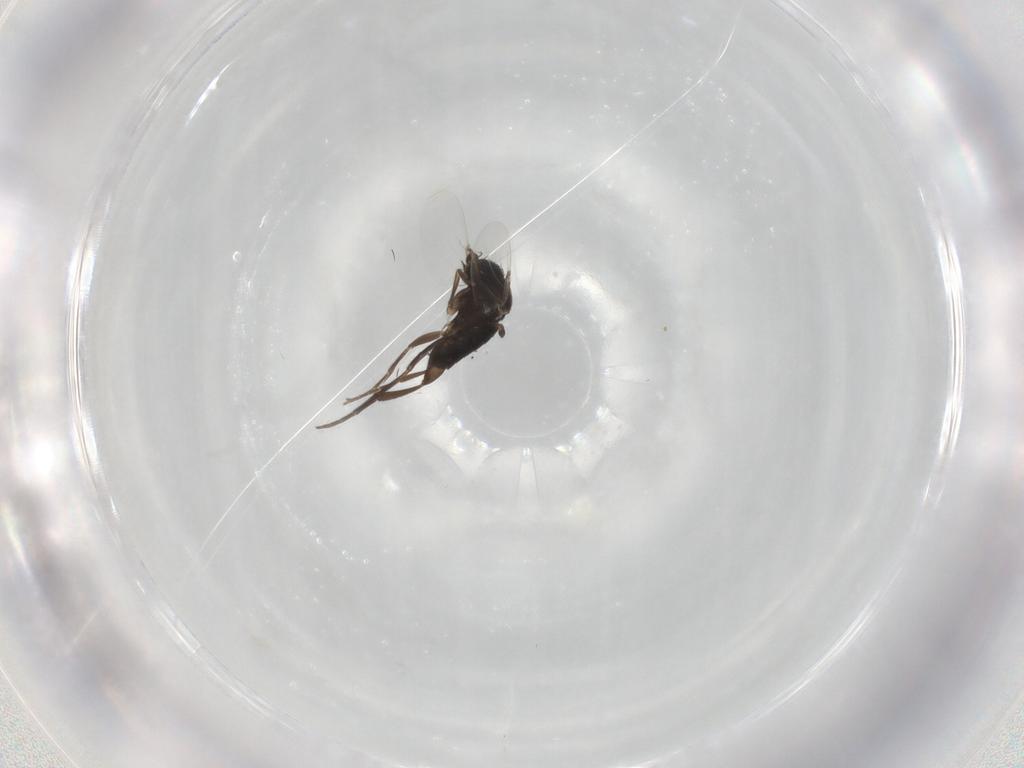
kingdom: Animalia
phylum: Arthropoda
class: Insecta
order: Diptera
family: Phoridae
